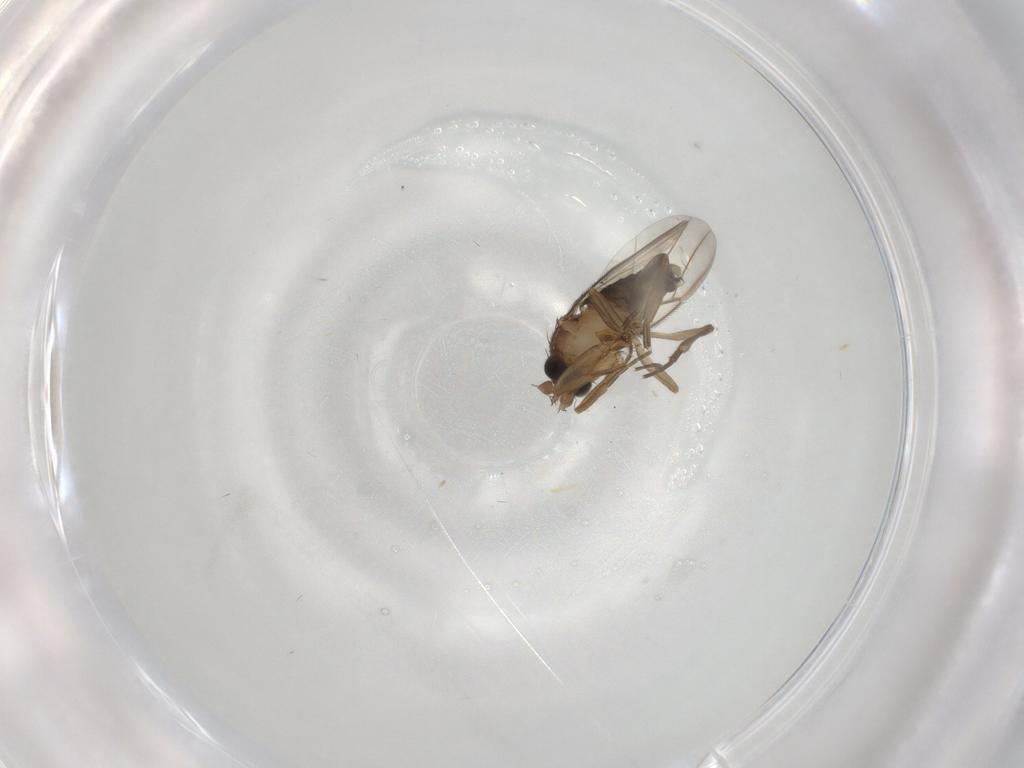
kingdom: Animalia
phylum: Arthropoda
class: Insecta
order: Diptera
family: Phoridae
